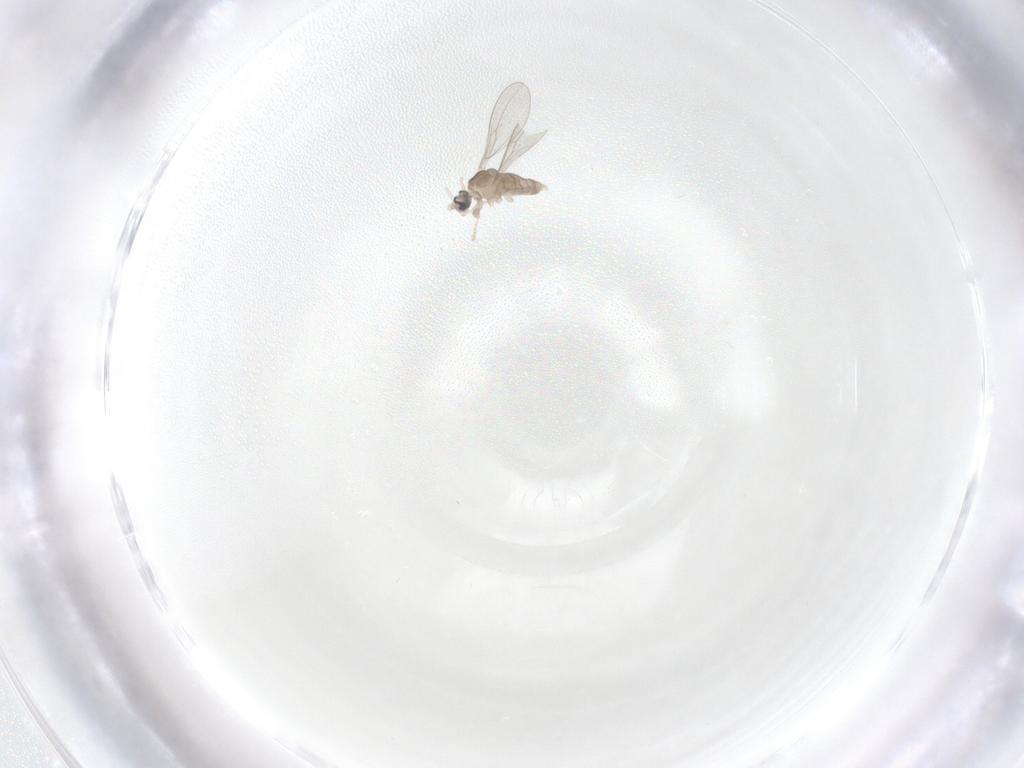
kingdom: Animalia
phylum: Arthropoda
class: Insecta
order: Diptera
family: Cecidomyiidae
